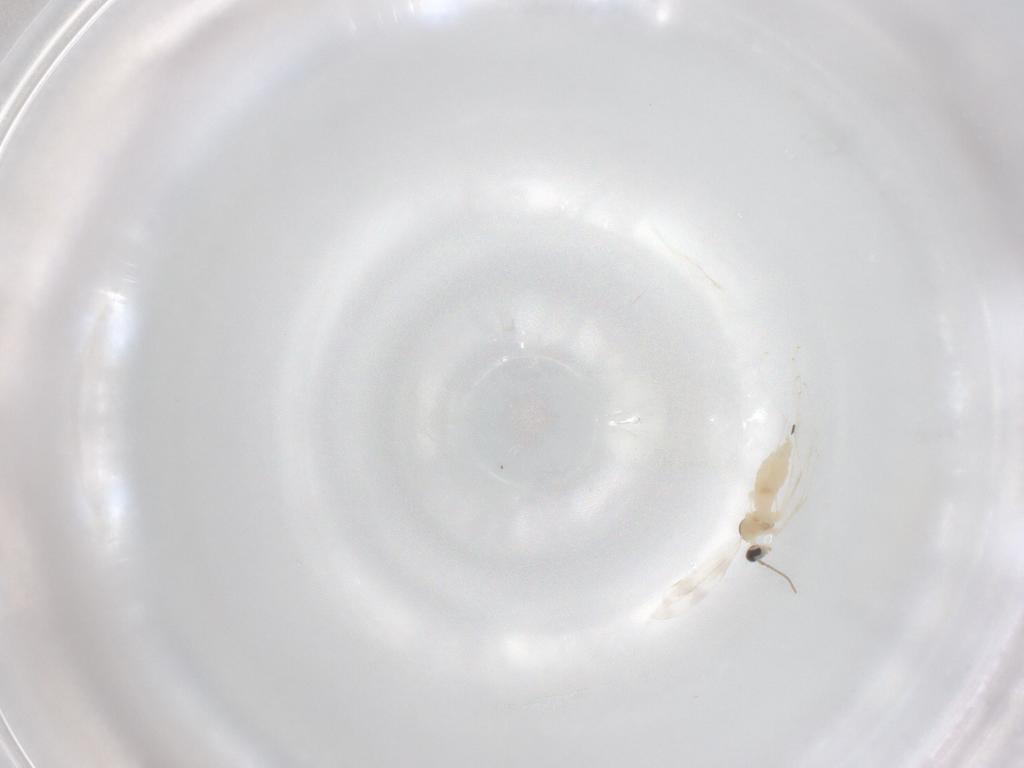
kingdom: Animalia
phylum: Arthropoda
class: Insecta
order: Diptera
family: Cecidomyiidae
